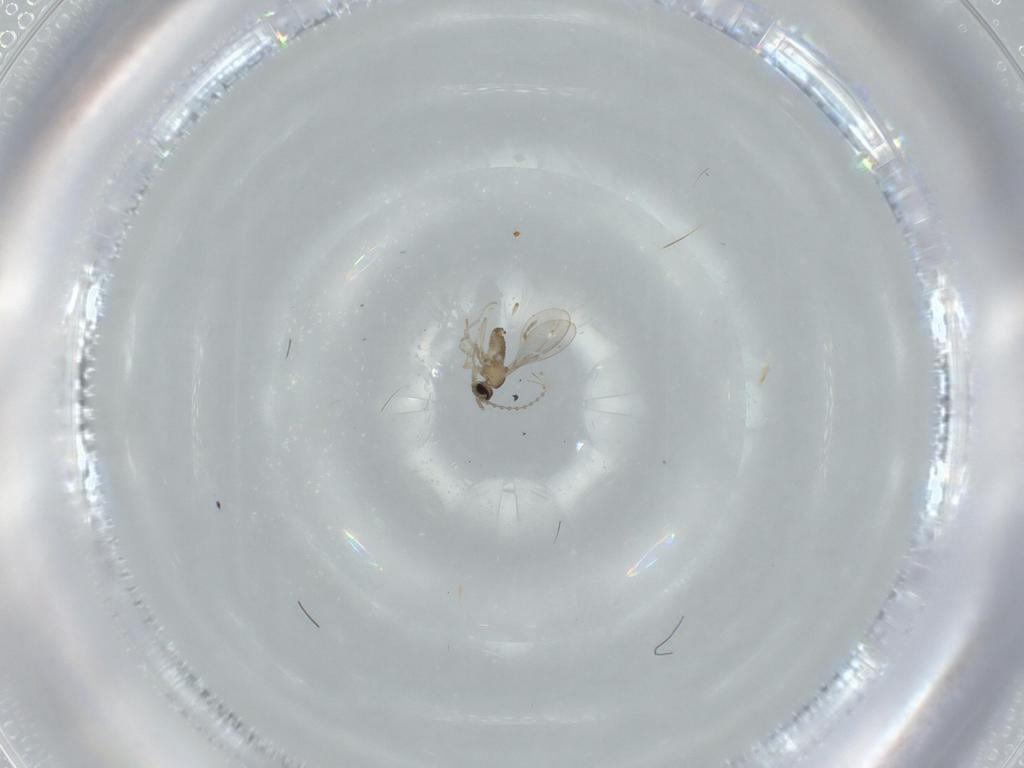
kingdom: Animalia
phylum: Arthropoda
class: Insecta
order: Diptera
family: Cecidomyiidae
